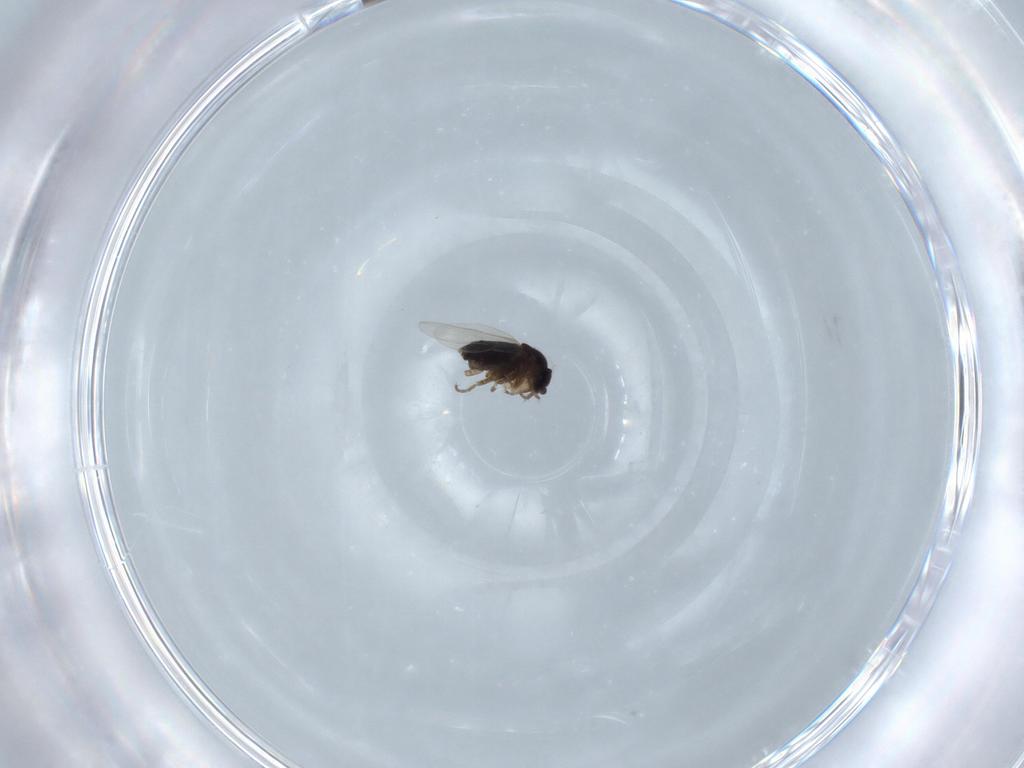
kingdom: Animalia
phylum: Arthropoda
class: Insecta
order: Diptera
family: Phoridae
